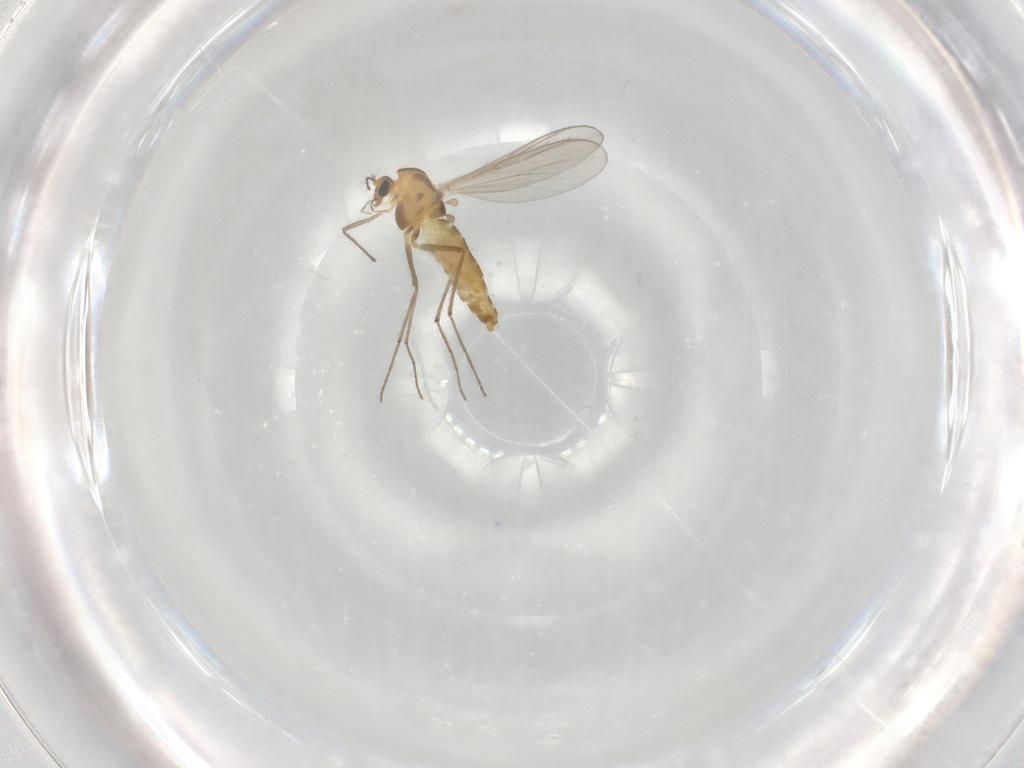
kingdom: Animalia
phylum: Arthropoda
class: Insecta
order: Diptera
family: Chironomidae
